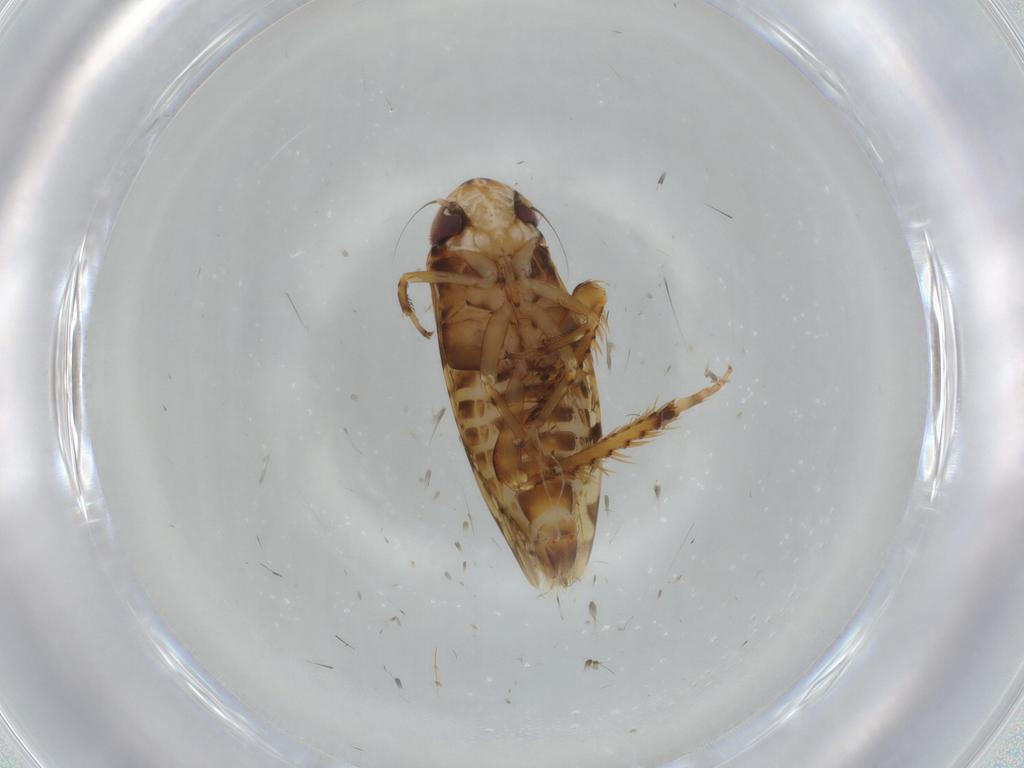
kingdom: Animalia
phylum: Arthropoda
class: Insecta
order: Hemiptera
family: Cicadellidae
